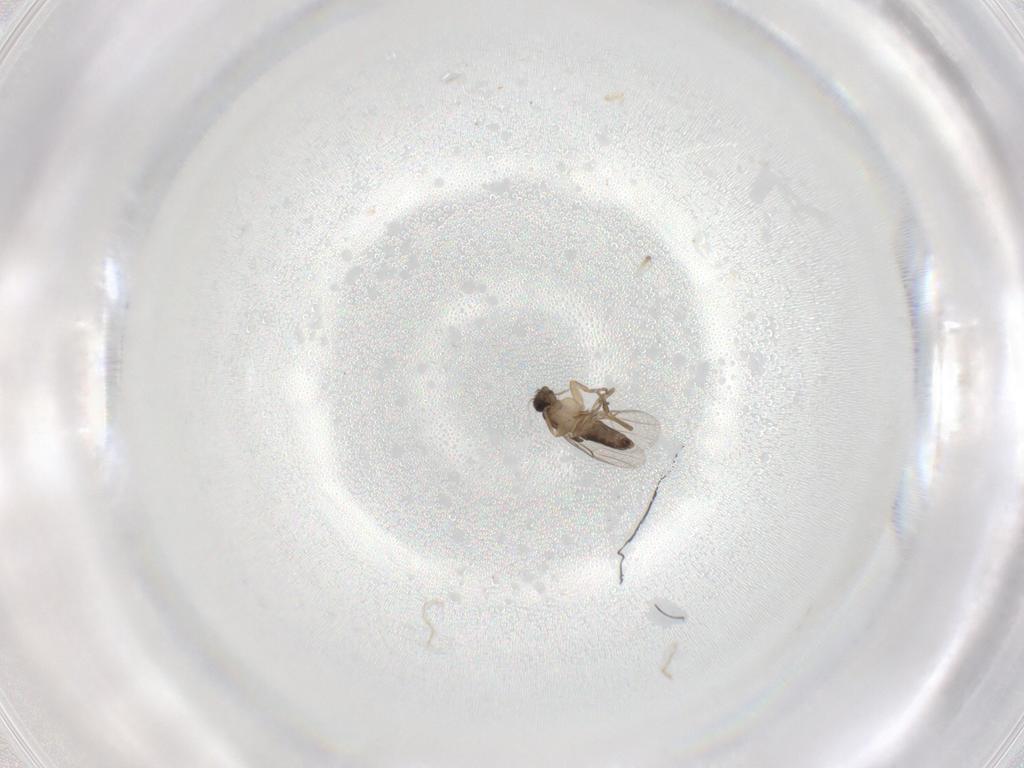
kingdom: Animalia
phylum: Arthropoda
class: Insecta
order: Diptera
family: Phoridae
